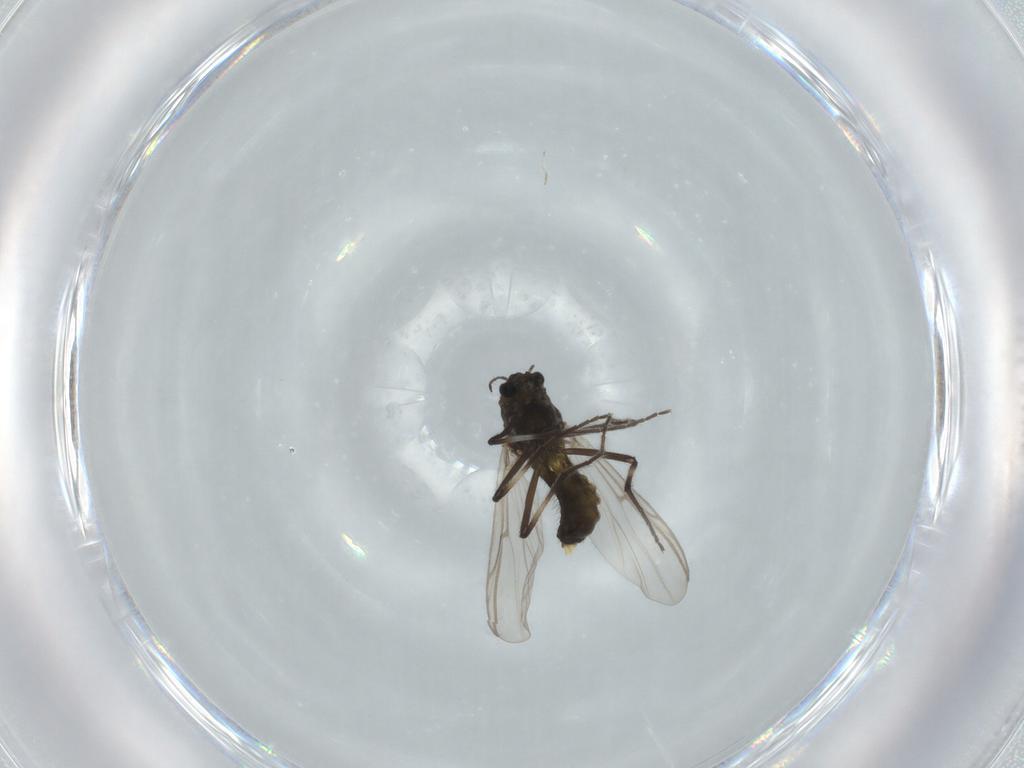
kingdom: Animalia
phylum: Arthropoda
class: Insecta
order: Diptera
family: Chironomidae
